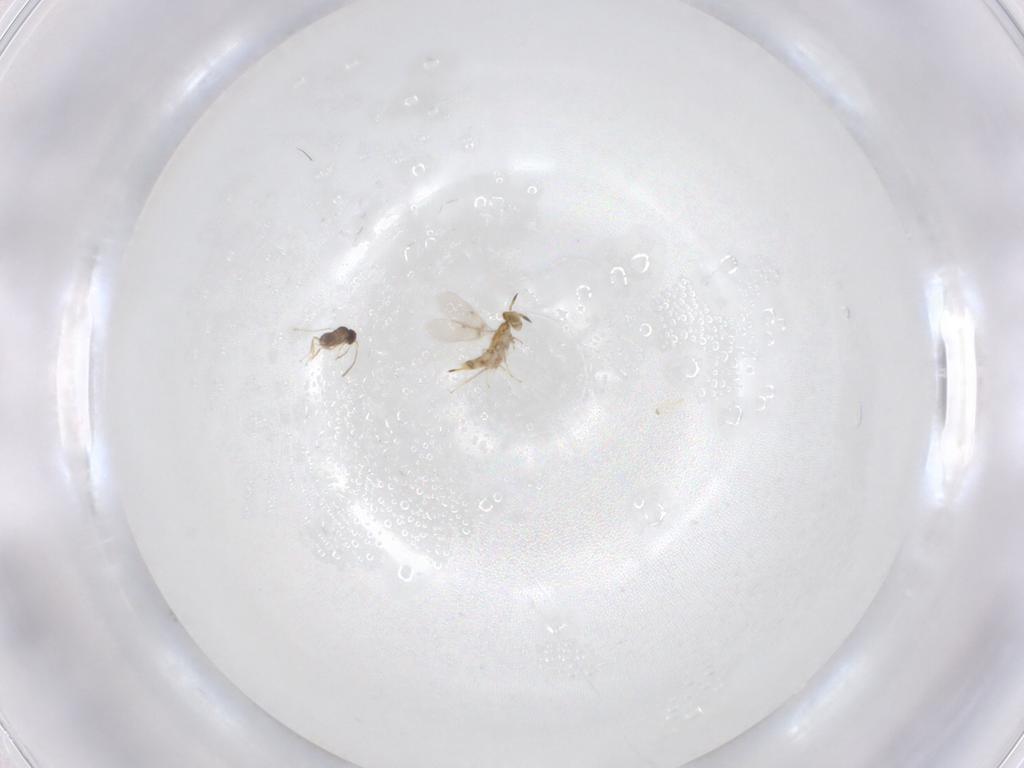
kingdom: Animalia
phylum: Arthropoda
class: Insecta
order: Hymenoptera
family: Aphelinidae
